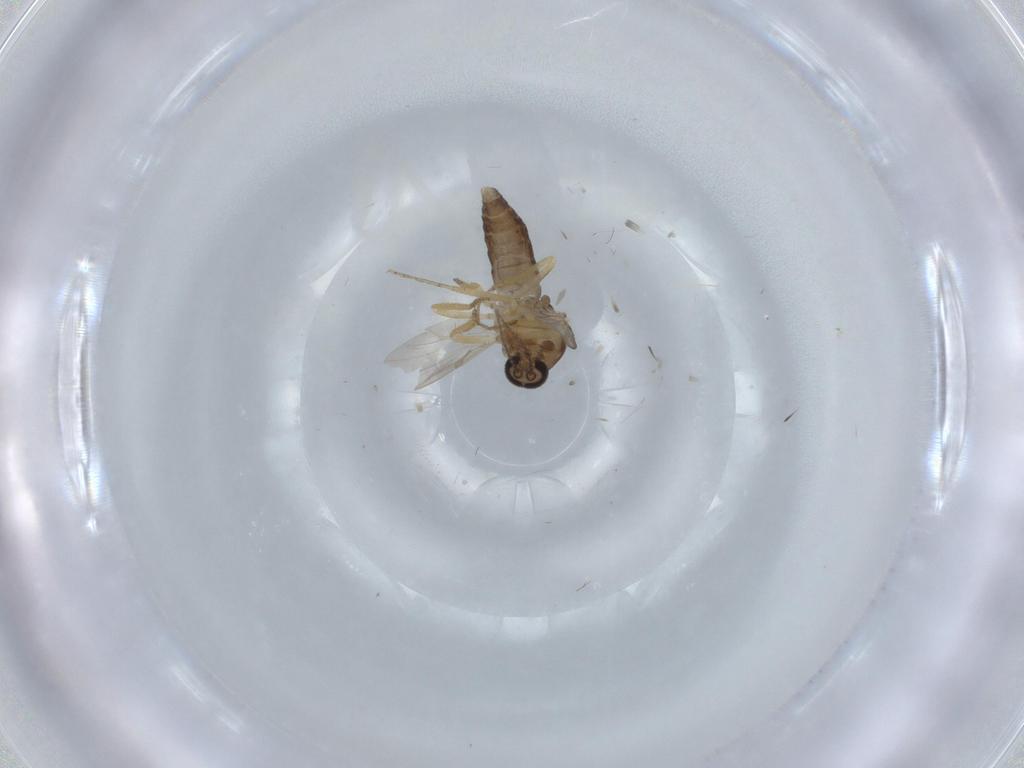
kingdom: Animalia
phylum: Arthropoda
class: Insecta
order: Diptera
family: Ceratopogonidae
